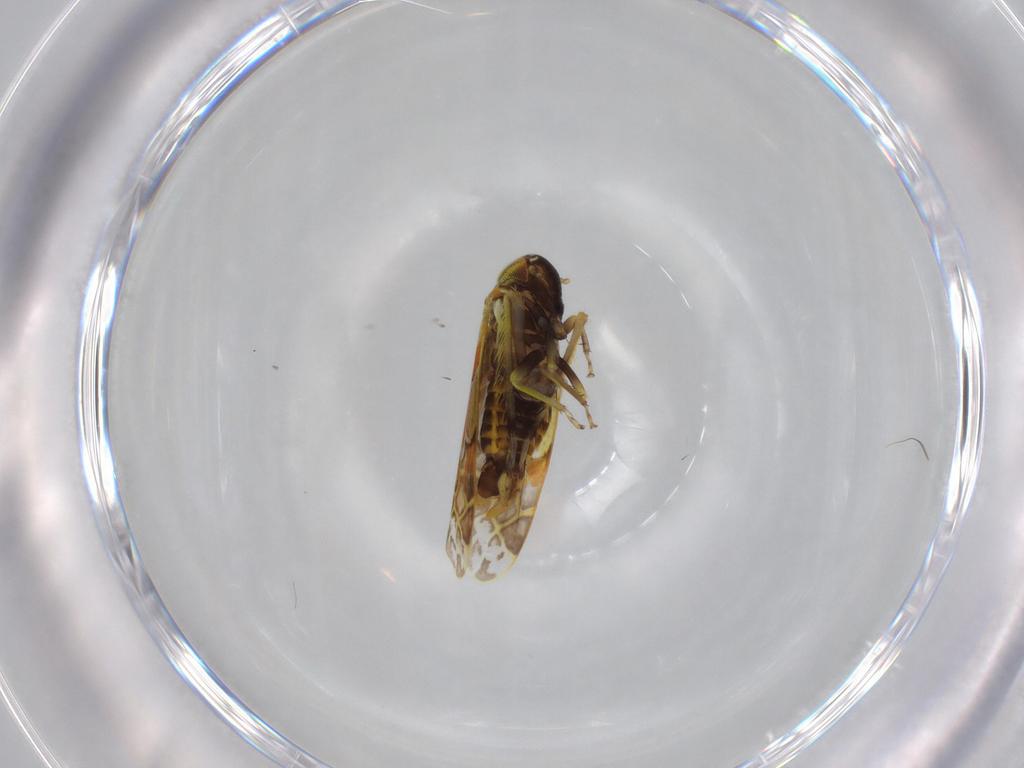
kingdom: Animalia
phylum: Arthropoda
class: Insecta
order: Hemiptera
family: Cicadellidae
